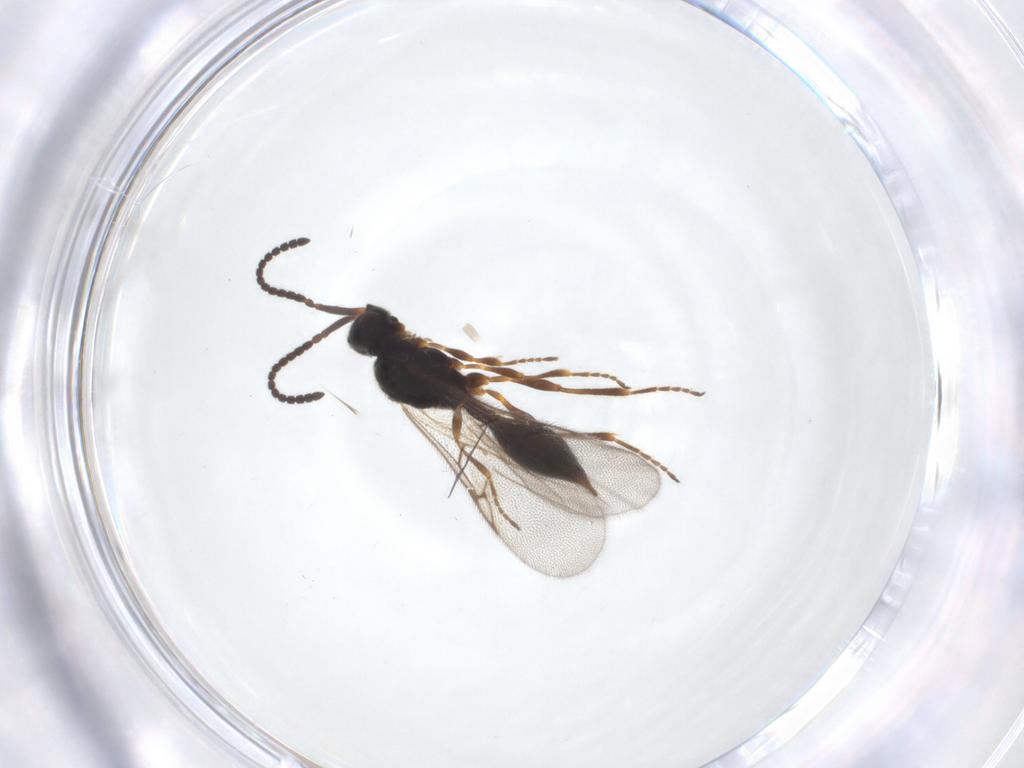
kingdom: Animalia
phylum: Arthropoda
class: Insecta
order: Hymenoptera
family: Diapriidae
